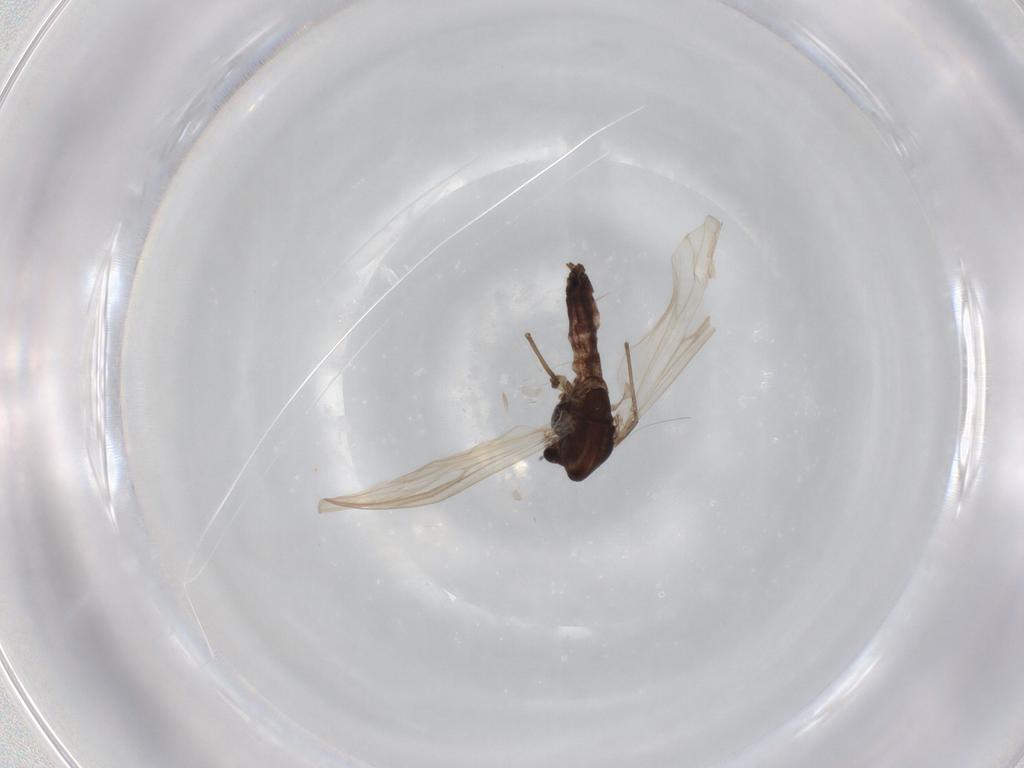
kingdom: Animalia
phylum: Arthropoda
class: Insecta
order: Diptera
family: Chironomidae
